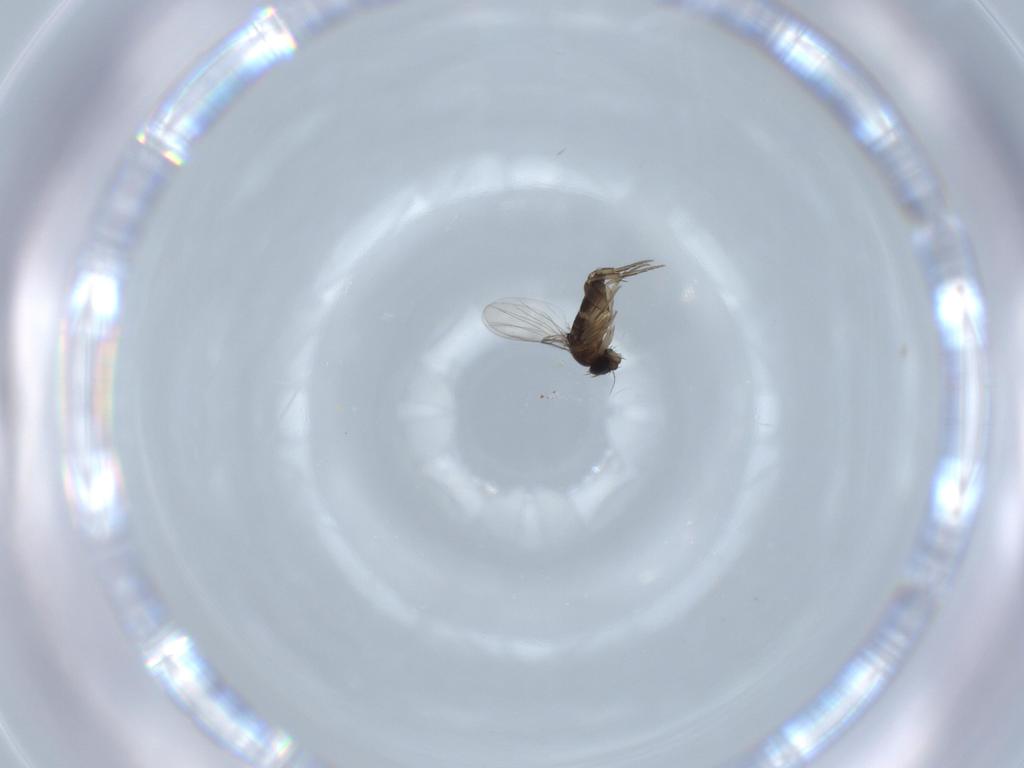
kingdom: Animalia
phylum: Arthropoda
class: Insecta
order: Diptera
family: Phoridae
